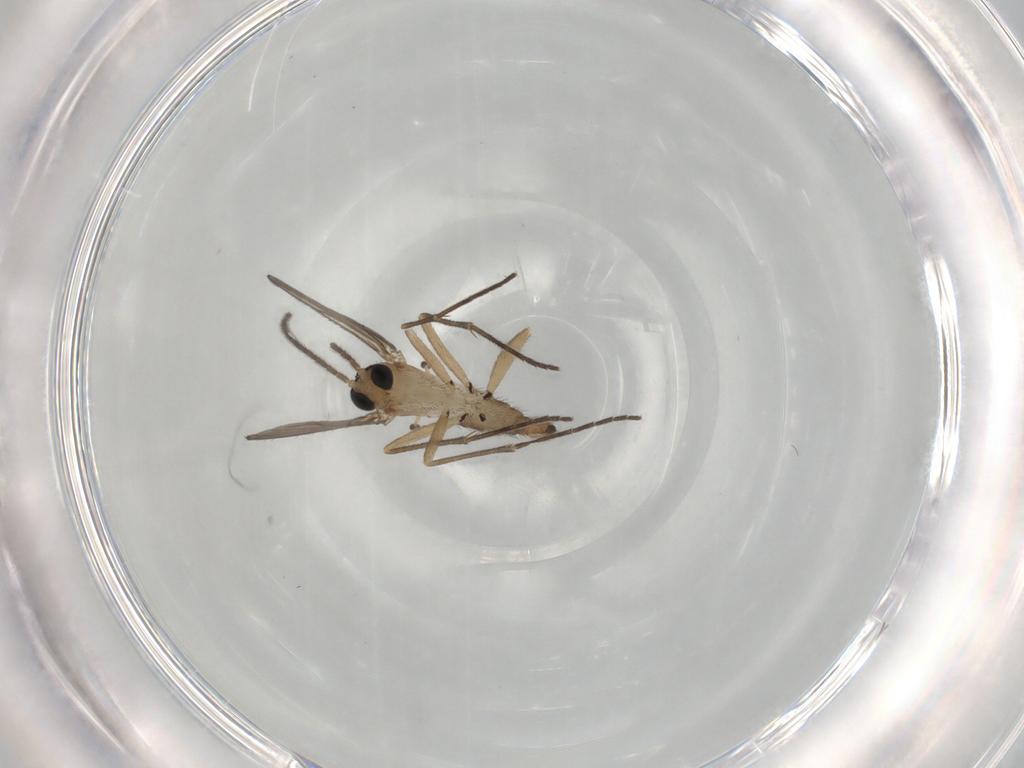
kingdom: Animalia
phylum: Arthropoda
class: Insecta
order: Diptera
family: Sciaridae
